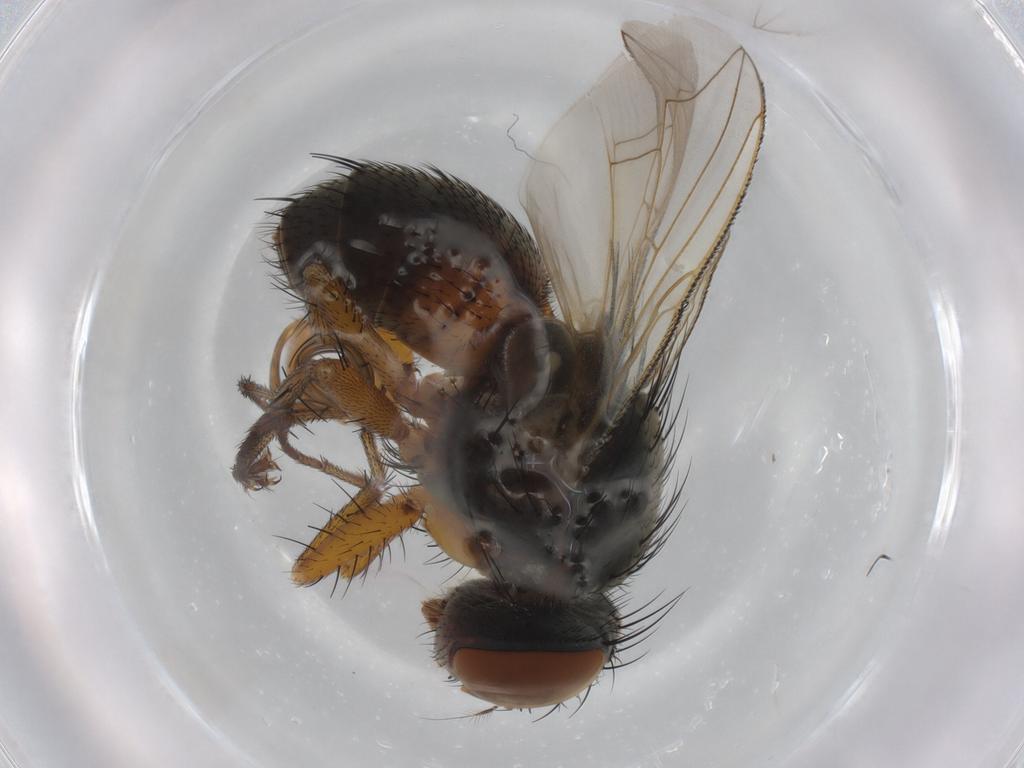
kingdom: Animalia
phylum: Arthropoda
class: Insecta
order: Diptera
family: Sarcophagidae
